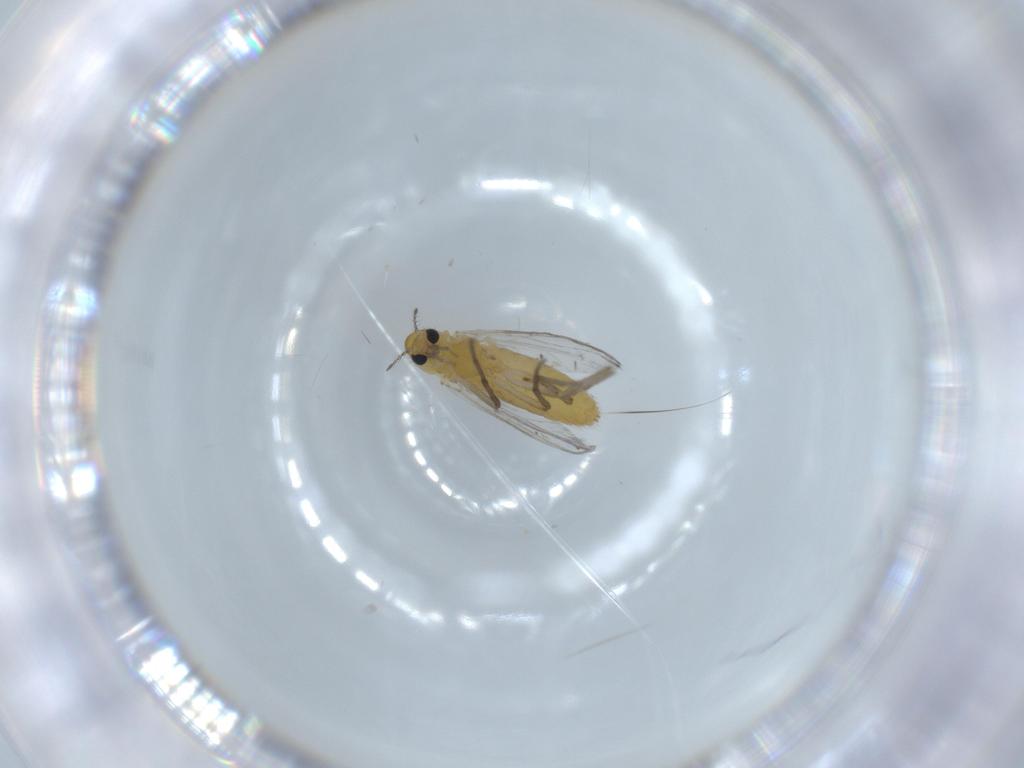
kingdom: Animalia
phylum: Arthropoda
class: Insecta
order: Diptera
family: Chironomidae
